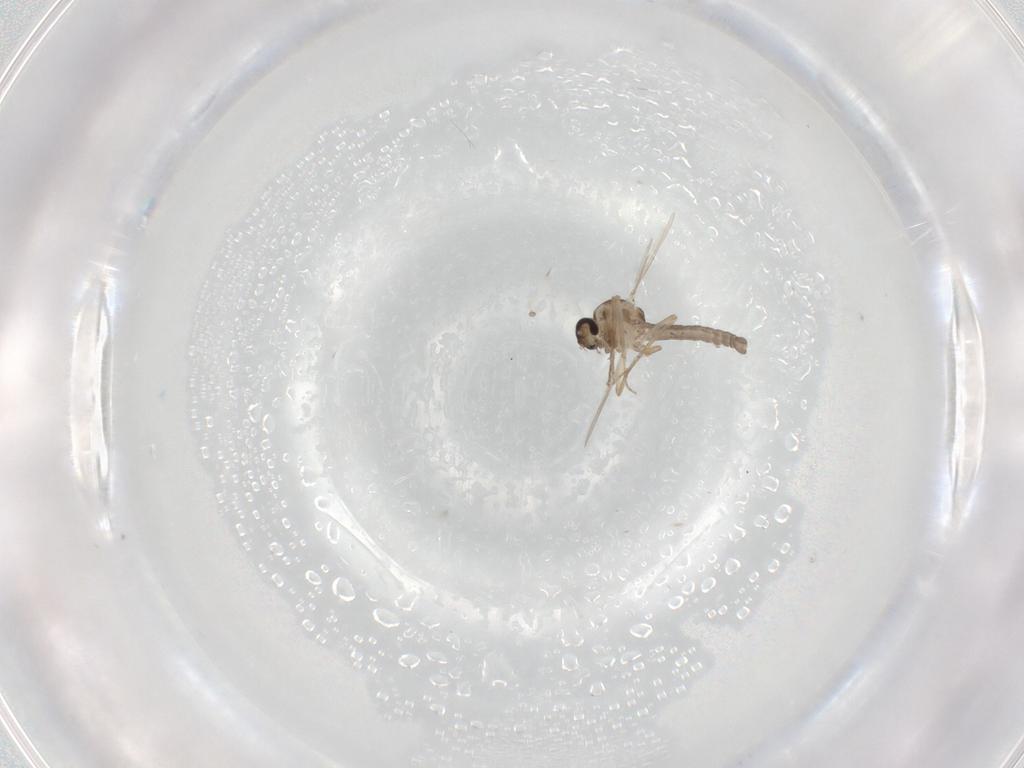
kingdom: Animalia
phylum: Arthropoda
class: Insecta
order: Diptera
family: Ceratopogonidae
